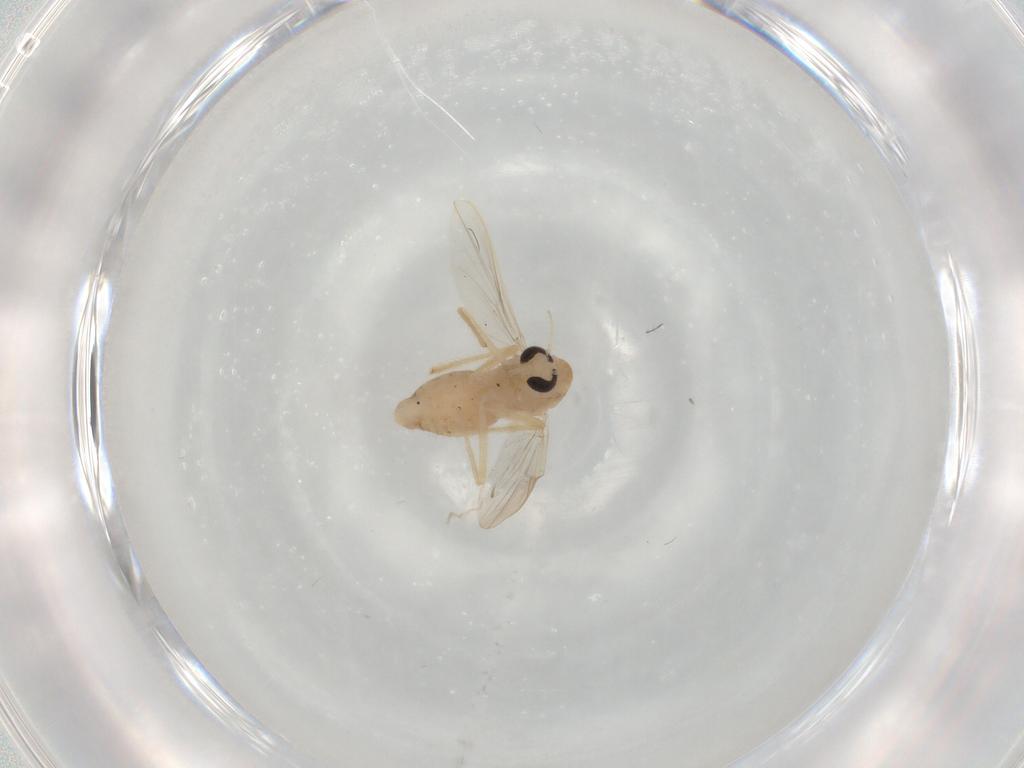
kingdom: Animalia
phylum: Arthropoda
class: Insecta
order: Diptera
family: Chironomidae
